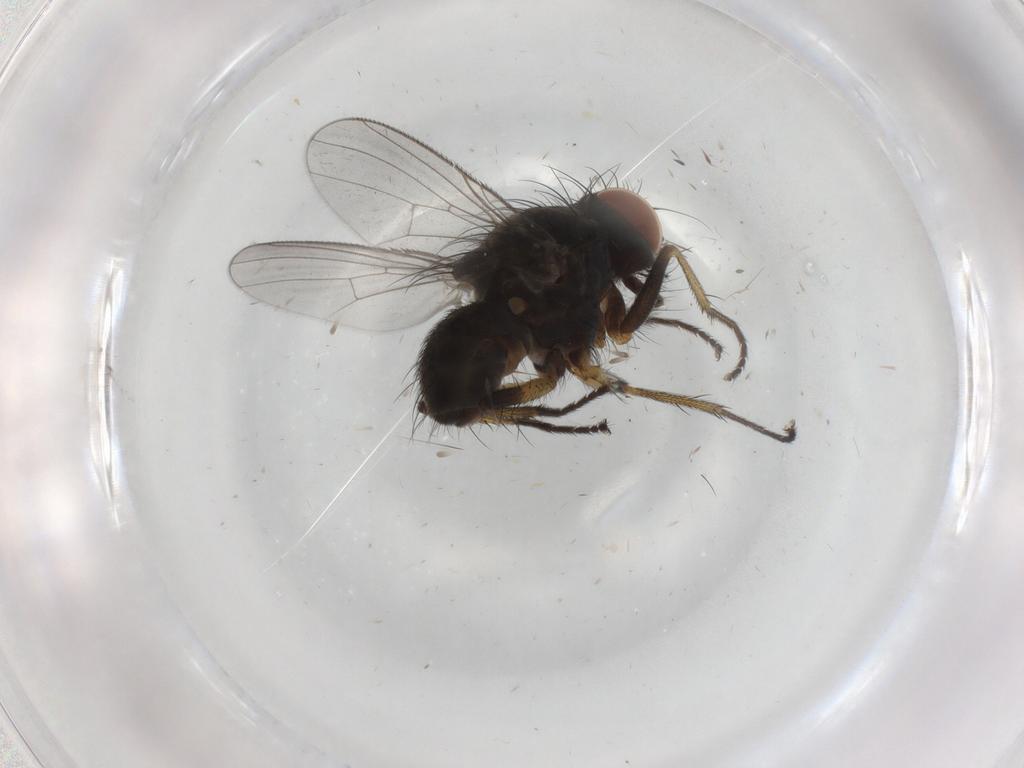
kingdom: Animalia
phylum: Arthropoda
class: Insecta
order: Diptera
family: Muscidae
